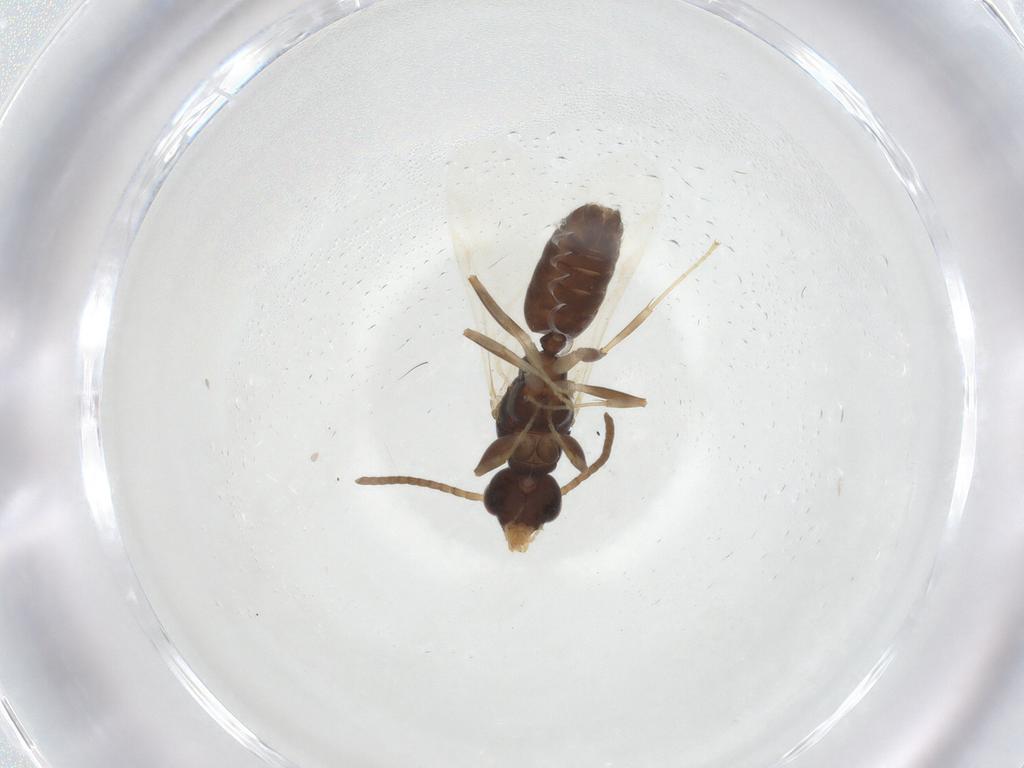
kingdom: Animalia
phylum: Arthropoda
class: Insecta
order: Hymenoptera
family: Formicidae
